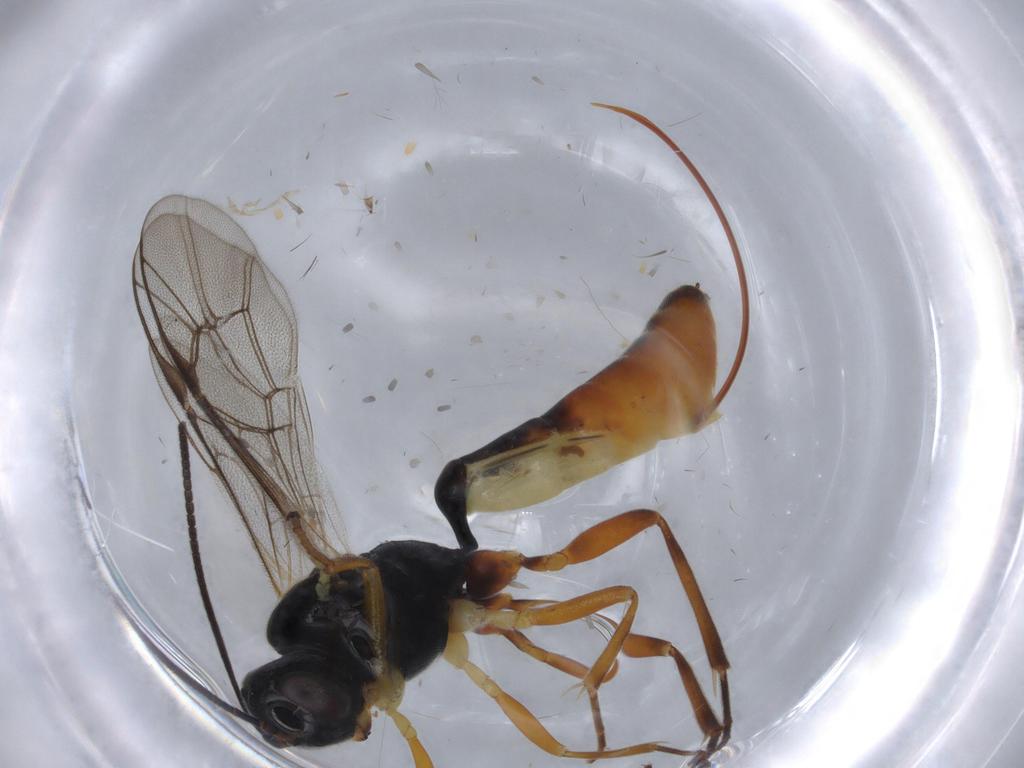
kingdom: Animalia
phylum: Arthropoda
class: Insecta
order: Hymenoptera
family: Ichneumonidae
